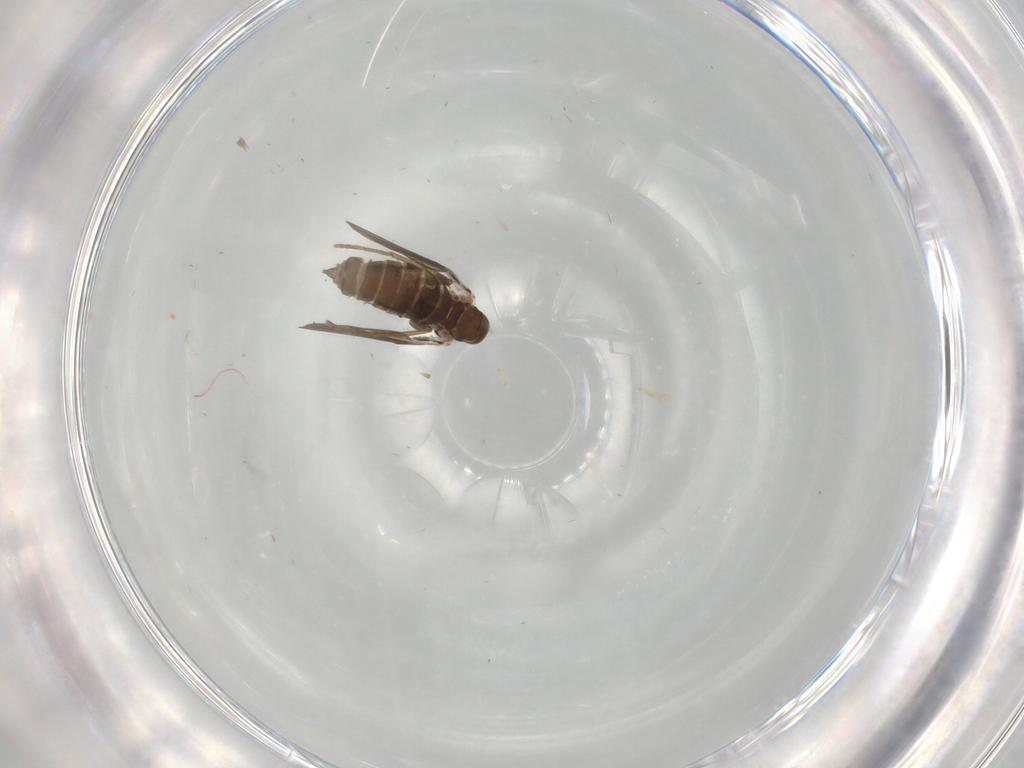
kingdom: Animalia
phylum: Arthropoda
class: Insecta
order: Diptera
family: Dolichopodidae
